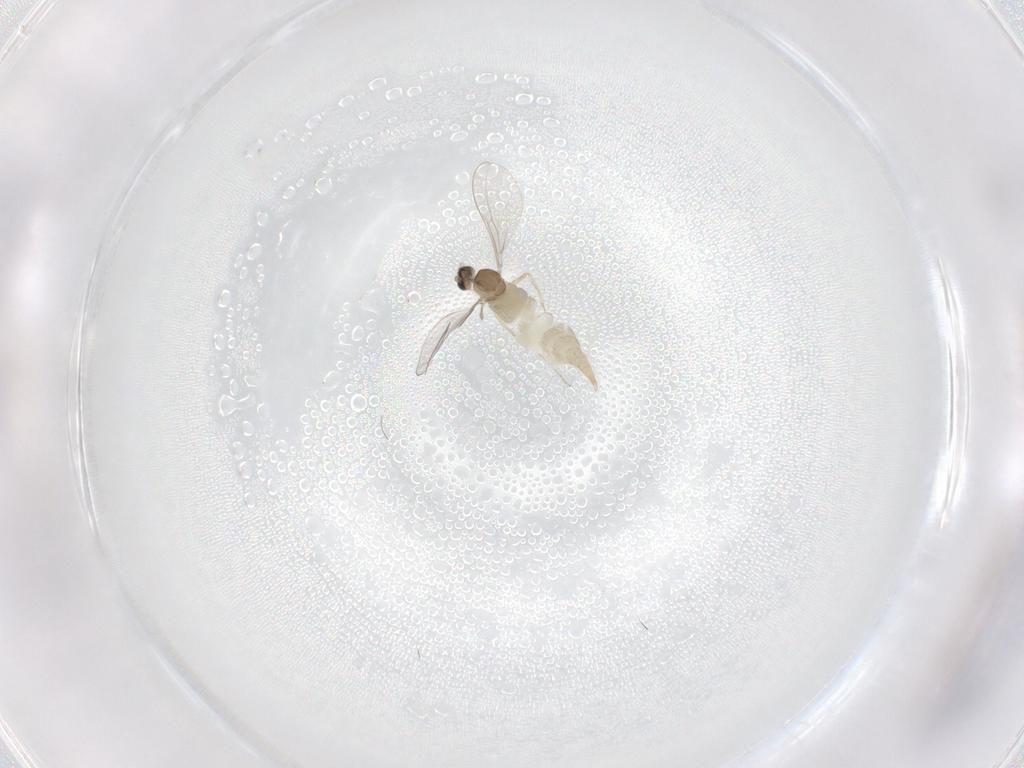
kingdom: Animalia
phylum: Arthropoda
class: Insecta
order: Diptera
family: Cecidomyiidae
